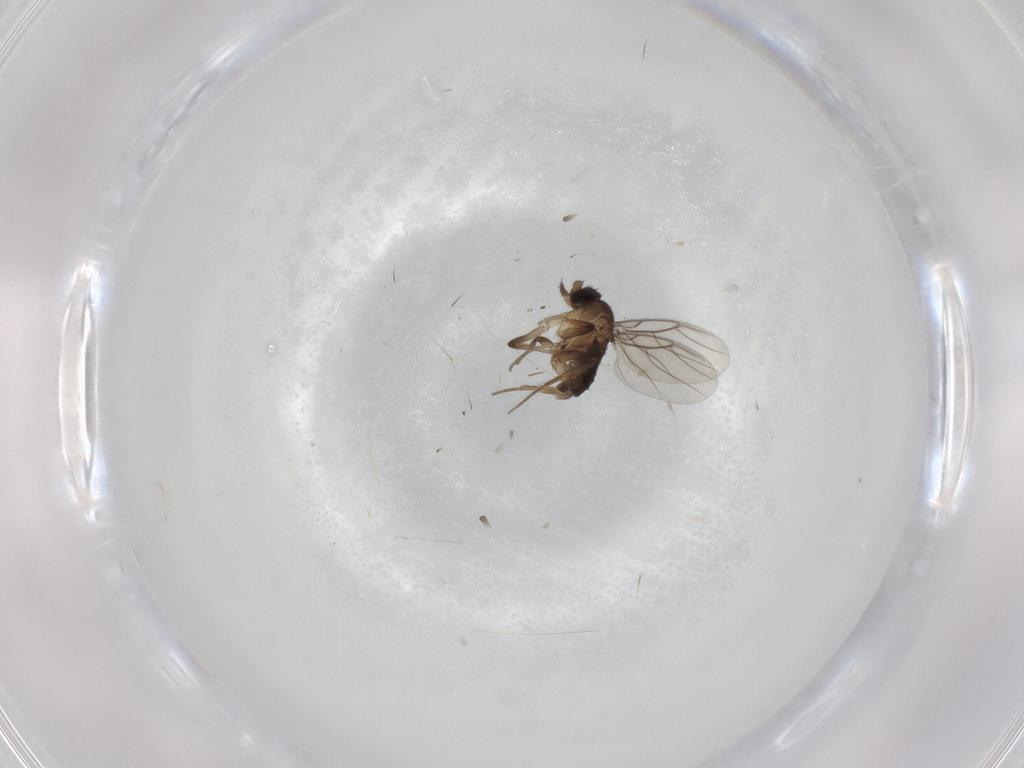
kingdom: Animalia
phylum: Arthropoda
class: Insecta
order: Diptera
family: Phoridae
